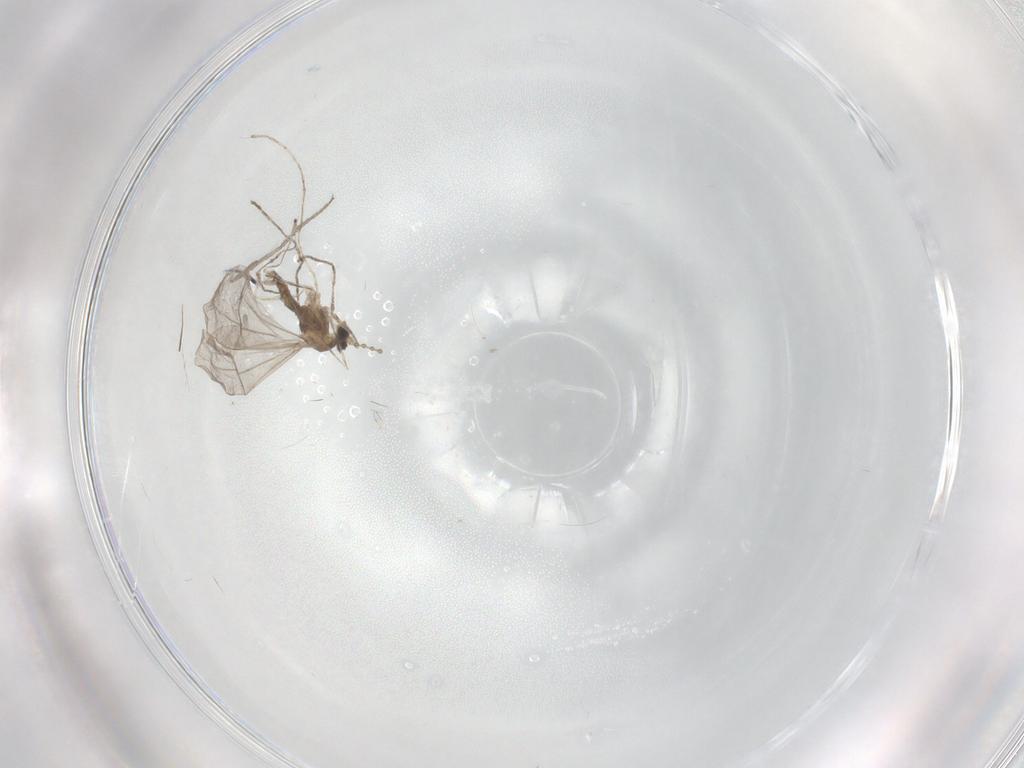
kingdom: Animalia
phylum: Arthropoda
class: Insecta
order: Diptera
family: Cecidomyiidae
